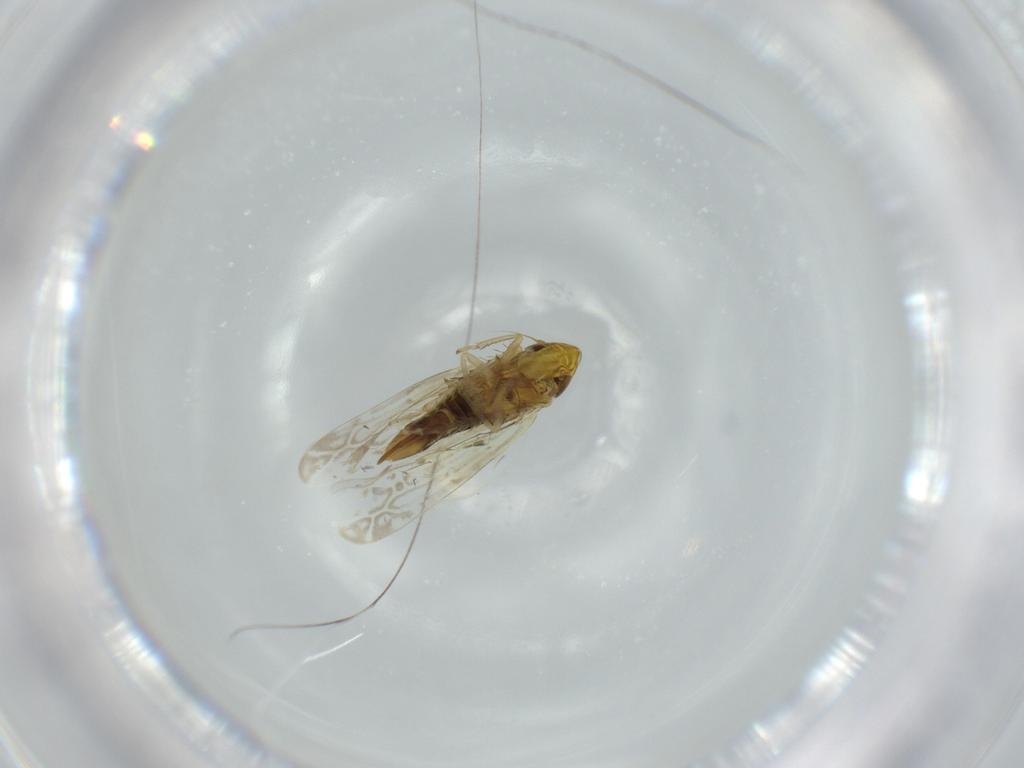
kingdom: Animalia
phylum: Arthropoda
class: Insecta
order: Hemiptera
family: Cicadellidae
